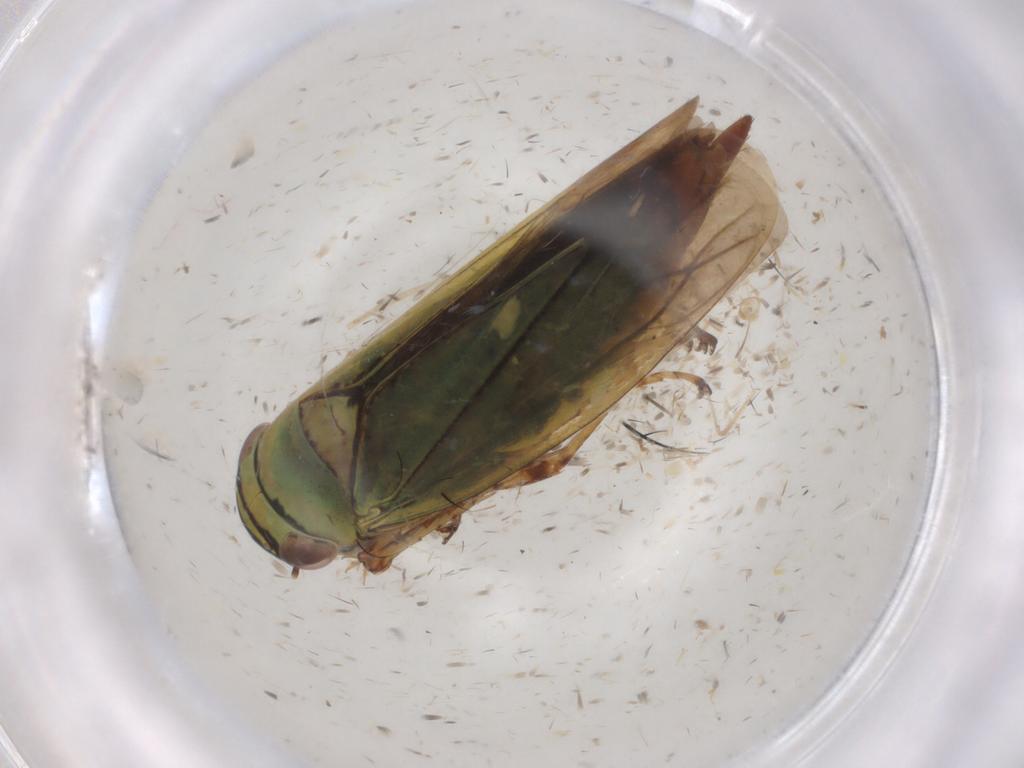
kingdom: Animalia
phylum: Arthropoda
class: Insecta
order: Hemiptera
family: Cicadellidae
